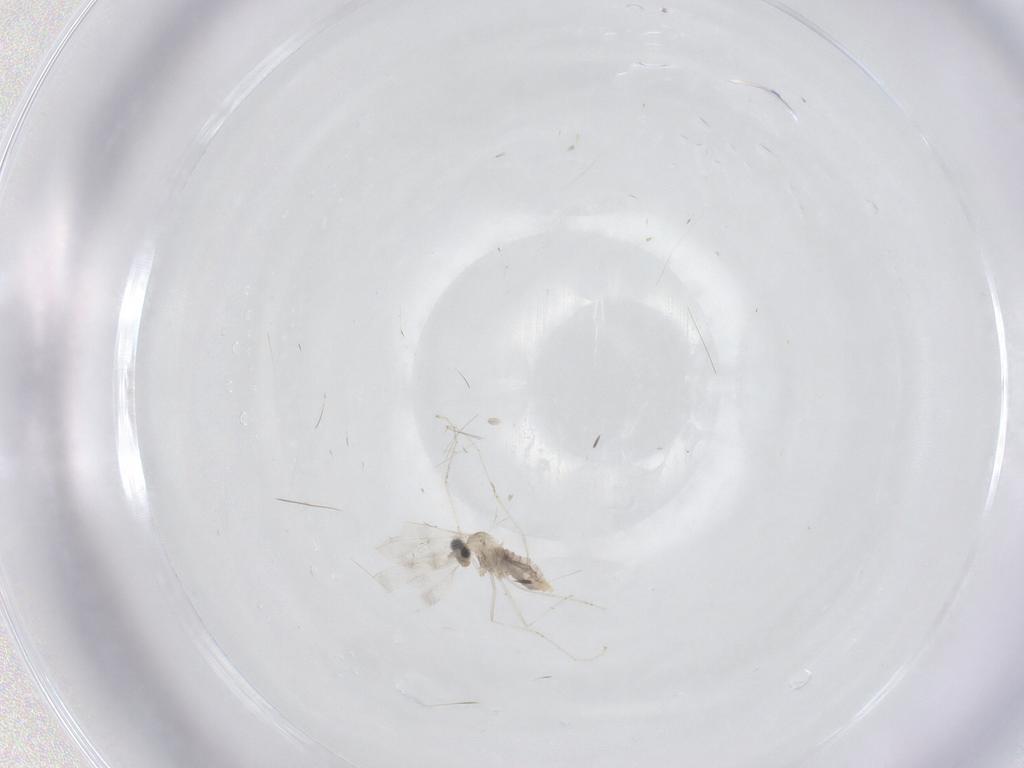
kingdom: Animalia
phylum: Arthropoda
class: Insecta
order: Diptera
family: Cecidomyiidae
